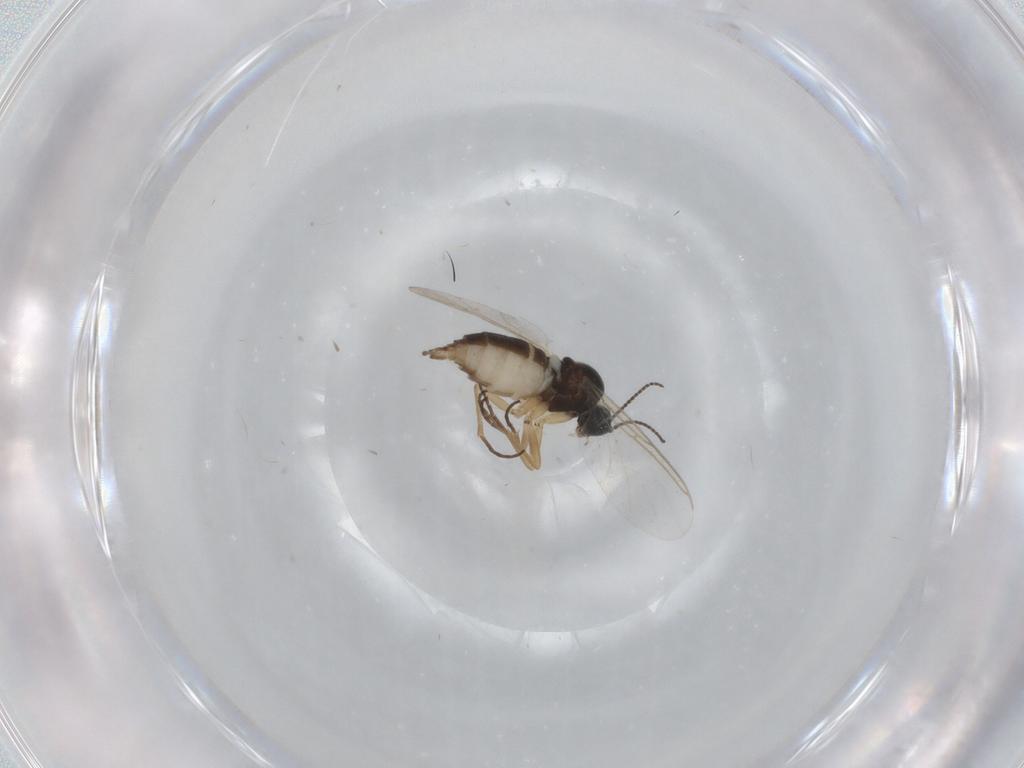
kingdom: Animalia
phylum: Arthropoda
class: Insecta
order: Diptera
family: Sciaridae
